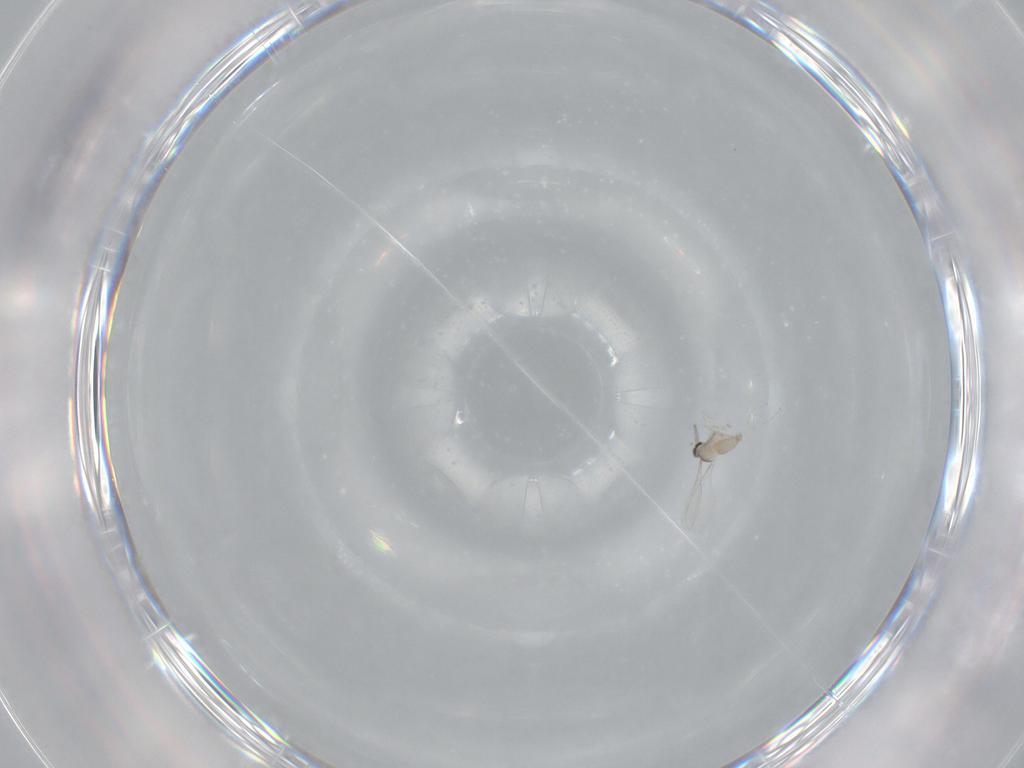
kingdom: Animalia
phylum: Arthropoda
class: Insecta
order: Diptera
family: Cecidomyiidae
